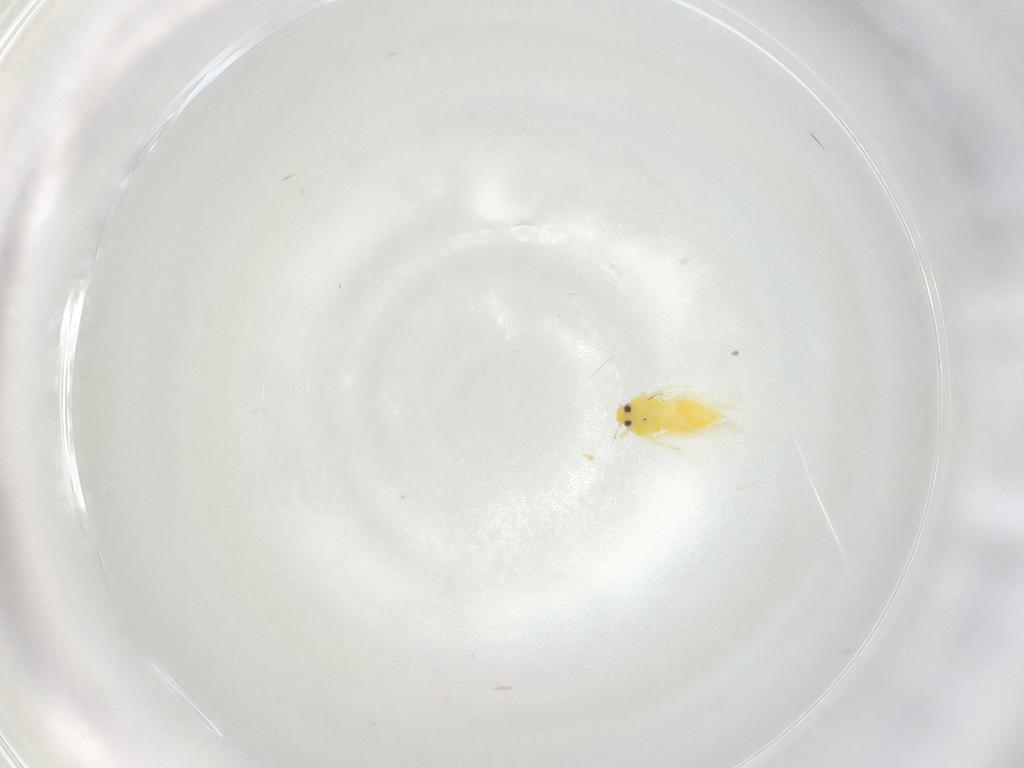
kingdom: Animalia
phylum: Arthropoda
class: Insecta
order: Hemiptera
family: Aleyrodidae
